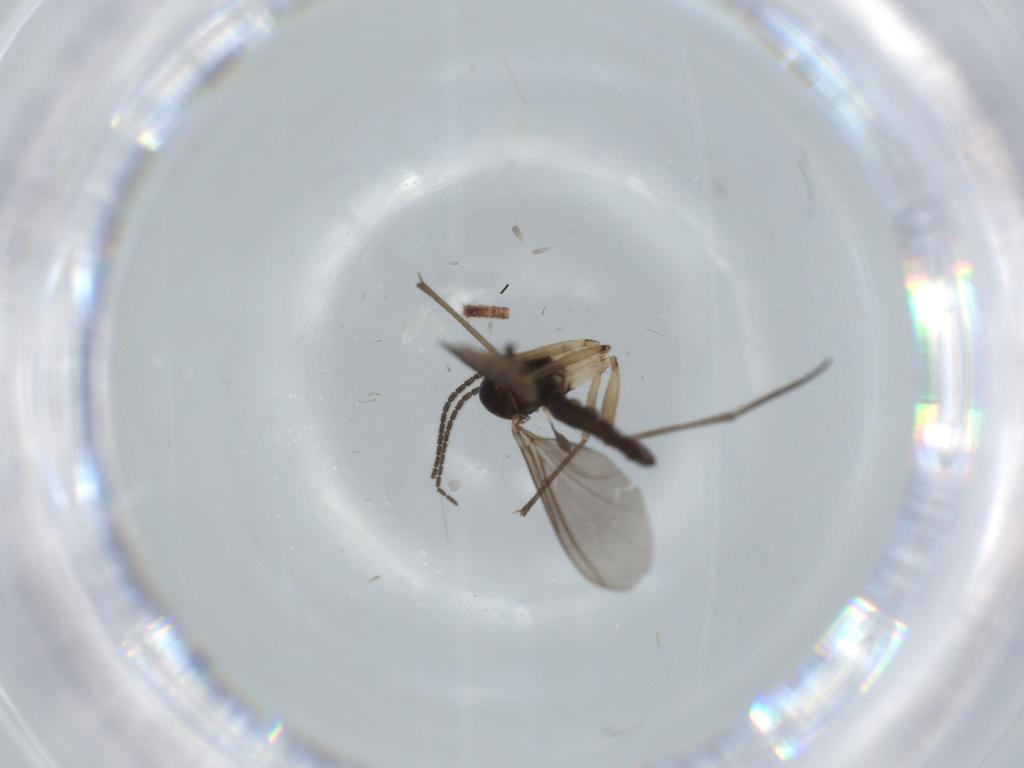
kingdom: Animalia
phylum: Arthropoda
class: Insecta
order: Diptera
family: Sciaridae
